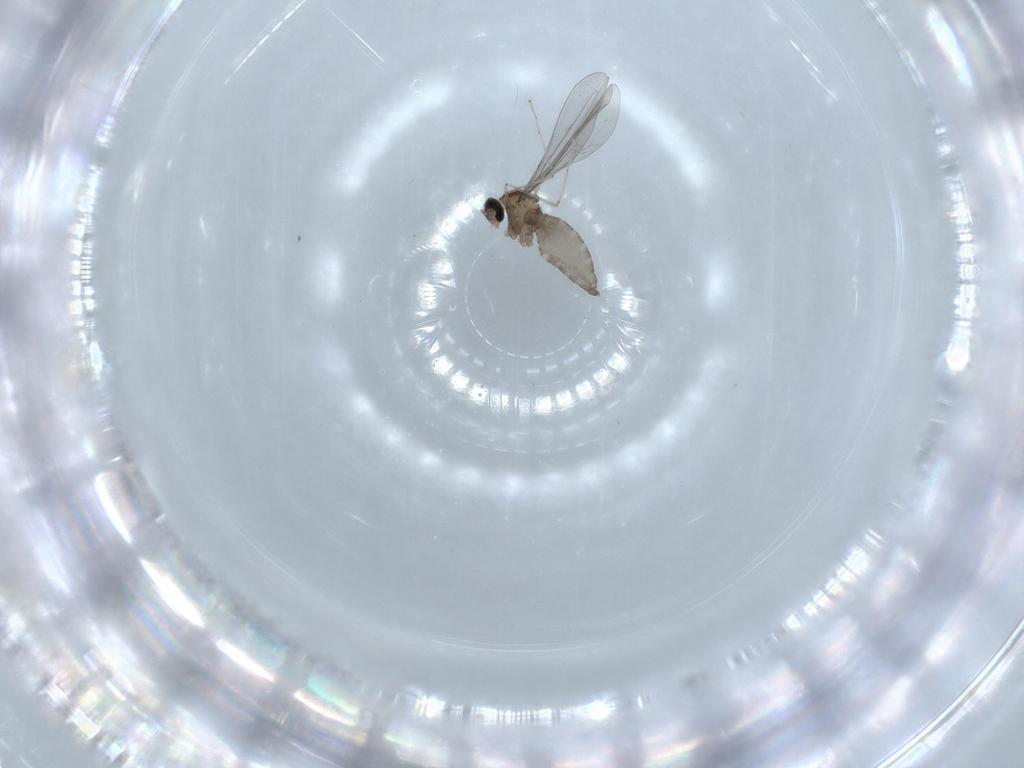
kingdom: Animalia
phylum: Arthropoda
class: Insecta
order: Diptera
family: Cecidomyiidae
